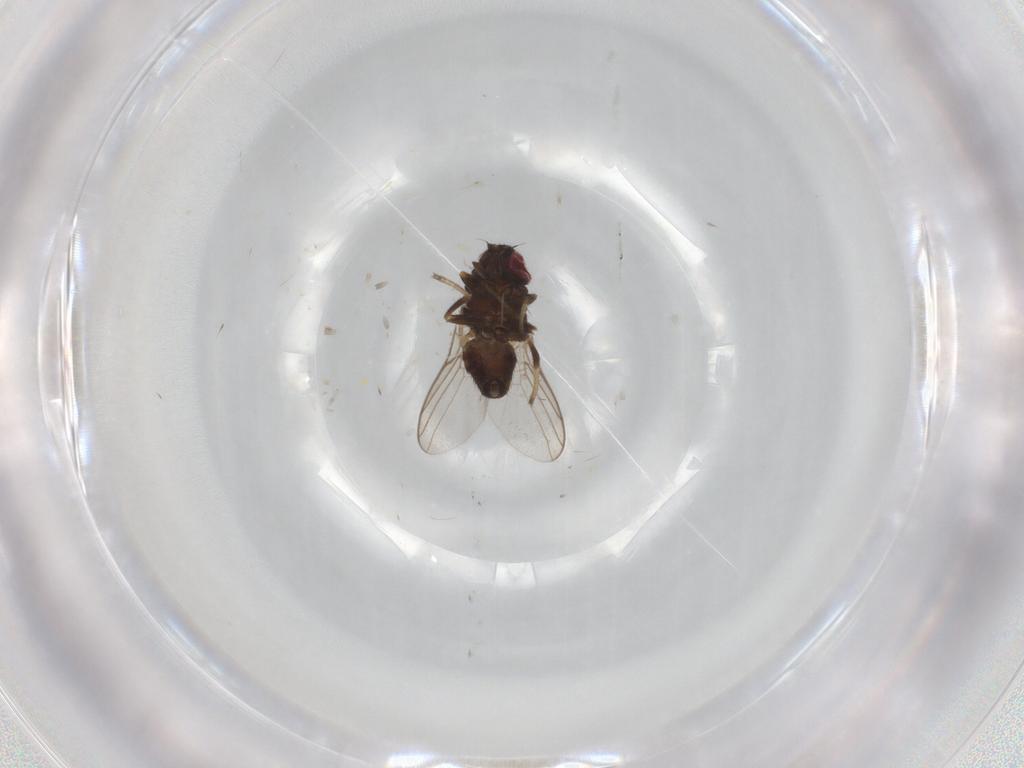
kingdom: Animalia
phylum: Arthropoda
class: Insecta
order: Diptera
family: Chloropidae
